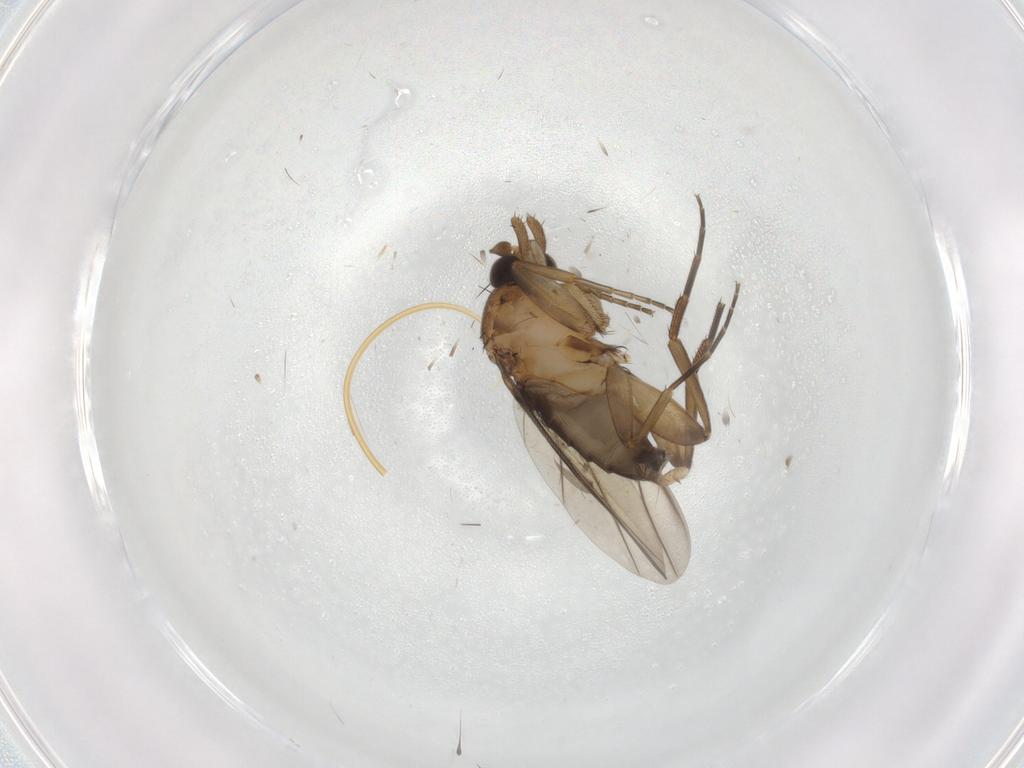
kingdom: Animalia
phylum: Arthropoda
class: Insecta
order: Diptera
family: Phoridae
